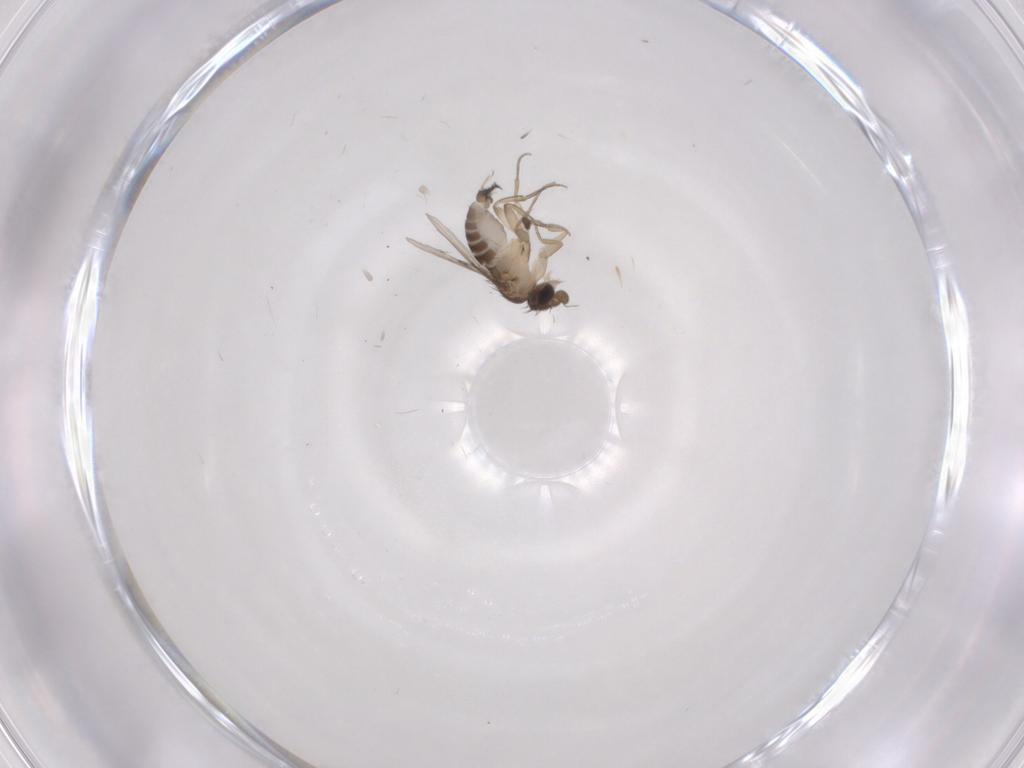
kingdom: Animalia
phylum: Arthropoda
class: Insecta
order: Diptera
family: Phoridae
